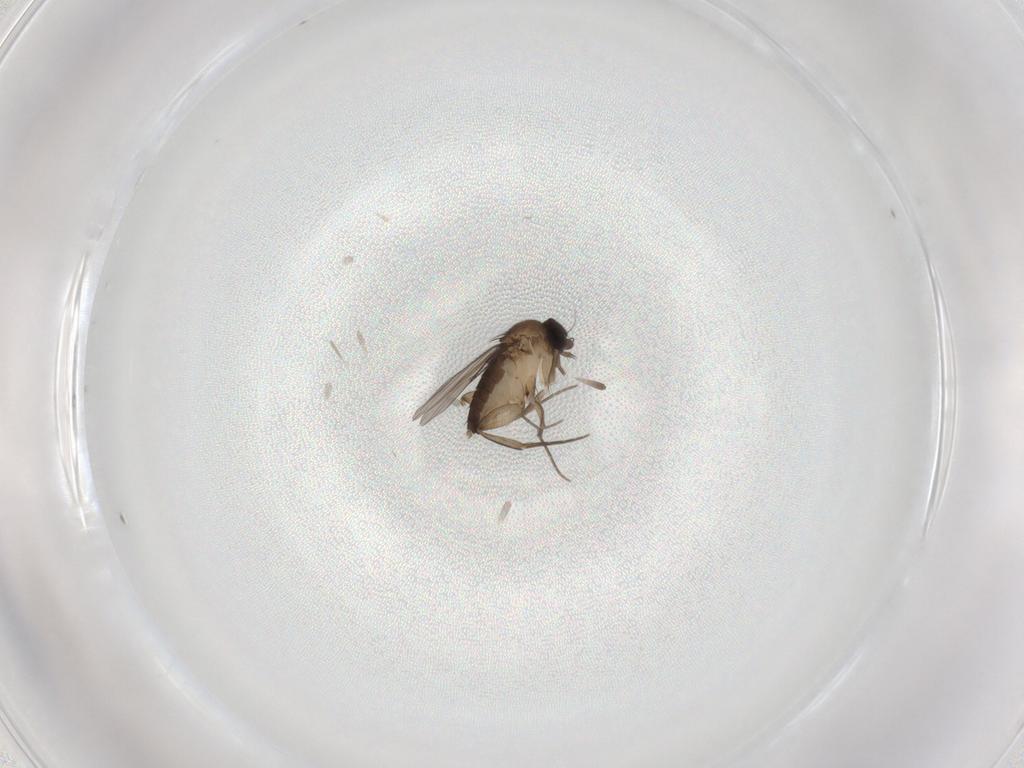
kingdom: Animalia
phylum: Arthropoda
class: Insecta
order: Diptera
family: Phoridae
